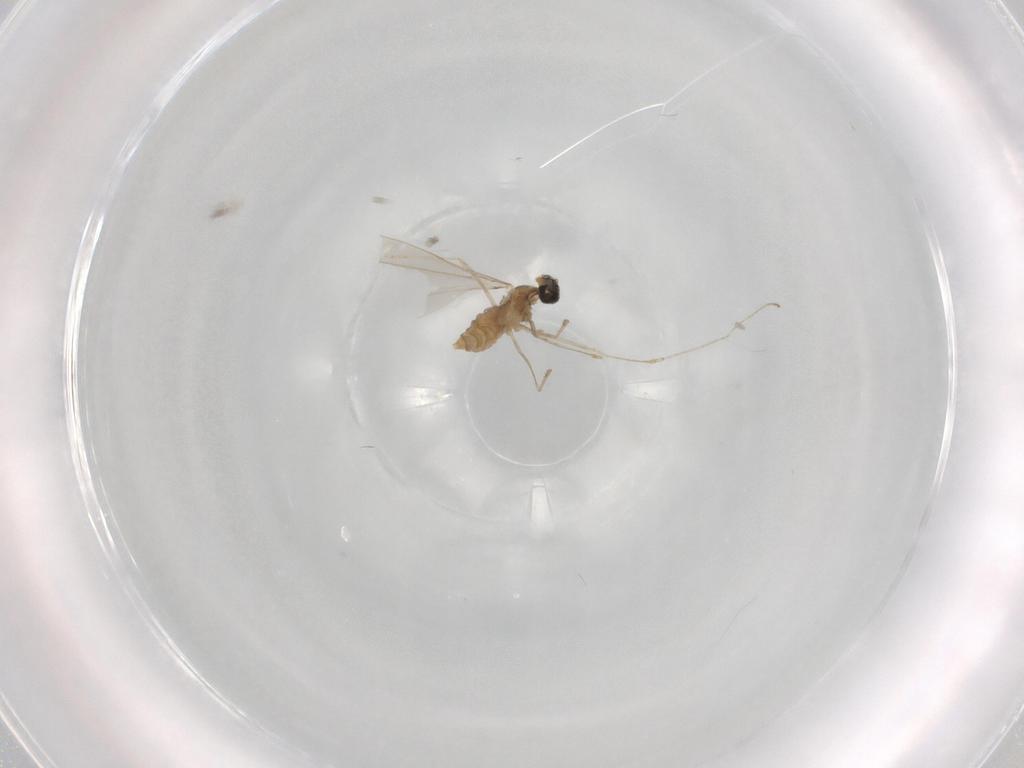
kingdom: Animalia
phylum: Arthropoda
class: Insecta
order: Diptera
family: Cecidomyiidae
